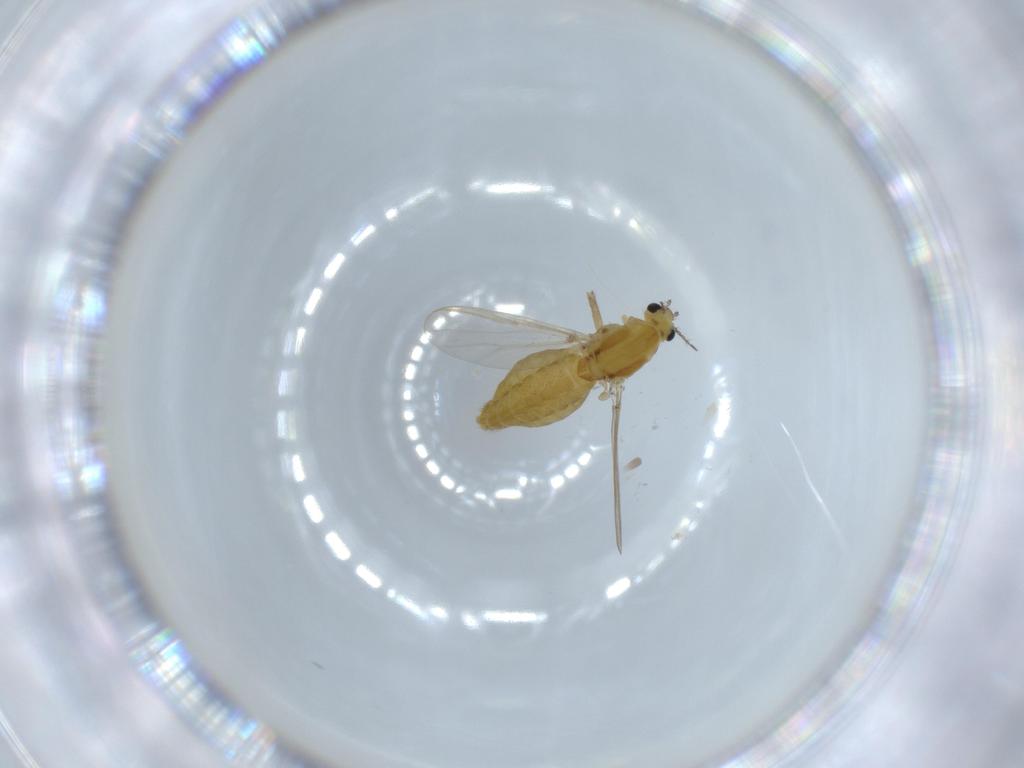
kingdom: Animalia
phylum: Arthropoda
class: Insecta
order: Diptera
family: Chironomidae
